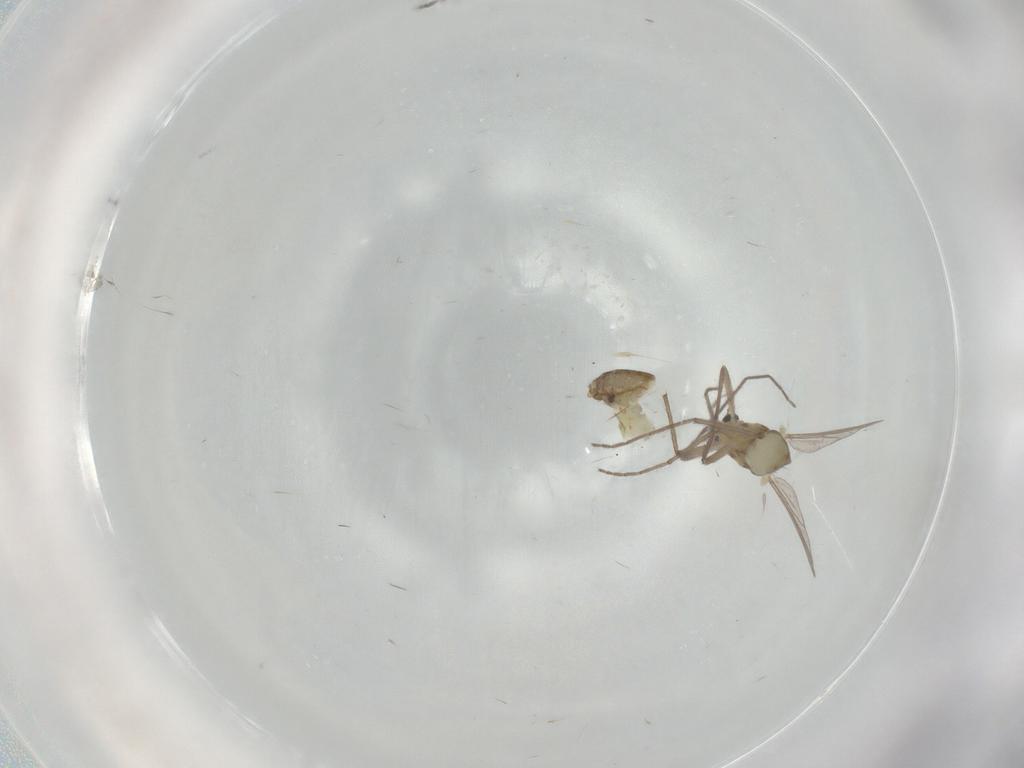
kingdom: Animalia
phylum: Arthropoda
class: Insecta
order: Diptera
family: Chironomidae
